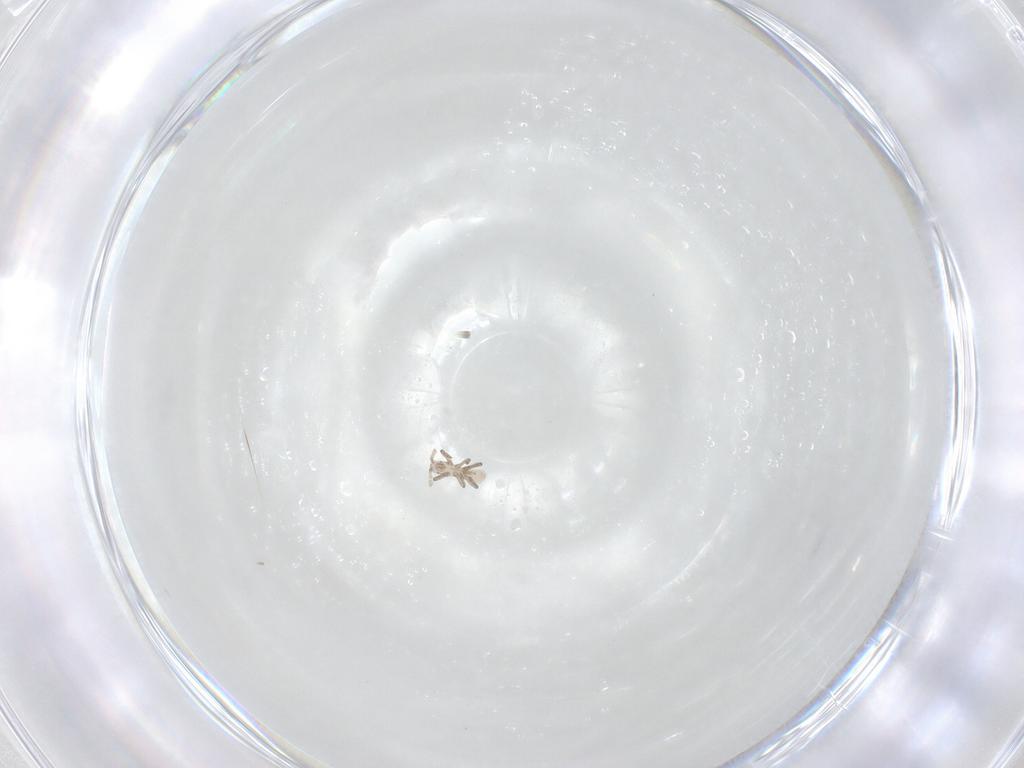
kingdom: Animalia
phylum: Arthropoda
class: Insecta
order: Hemiptera
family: Aphididae
